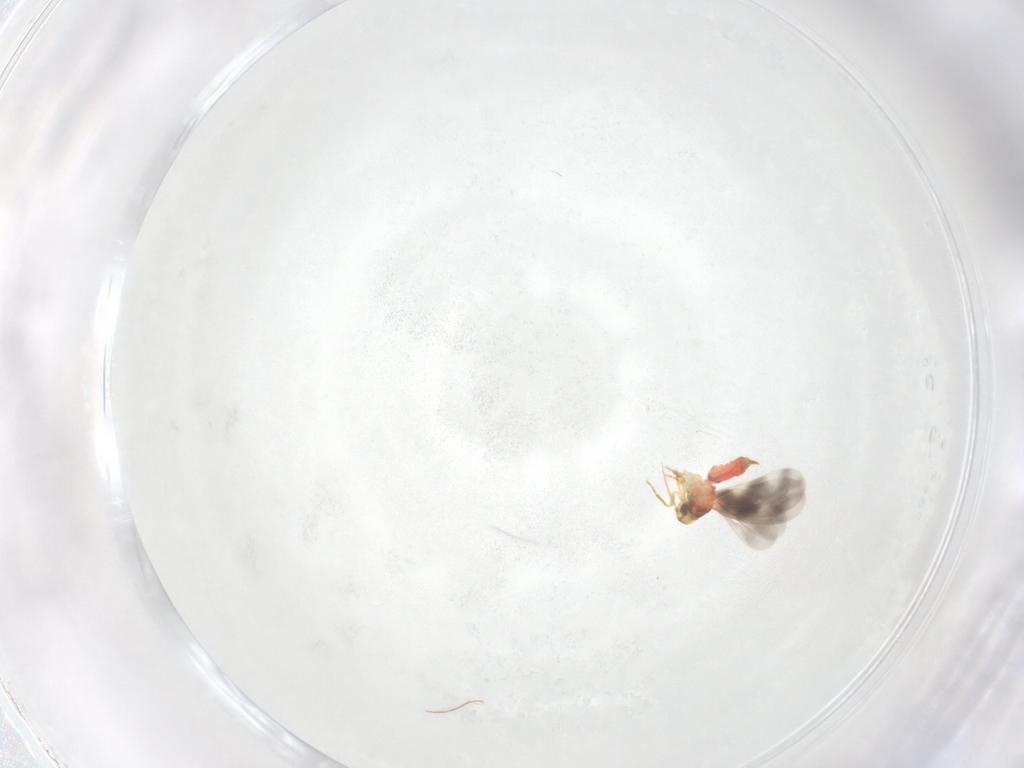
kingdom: Animalia
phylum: Arthropoda
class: Insecta
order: Hemiptera
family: Aleyrodidae
